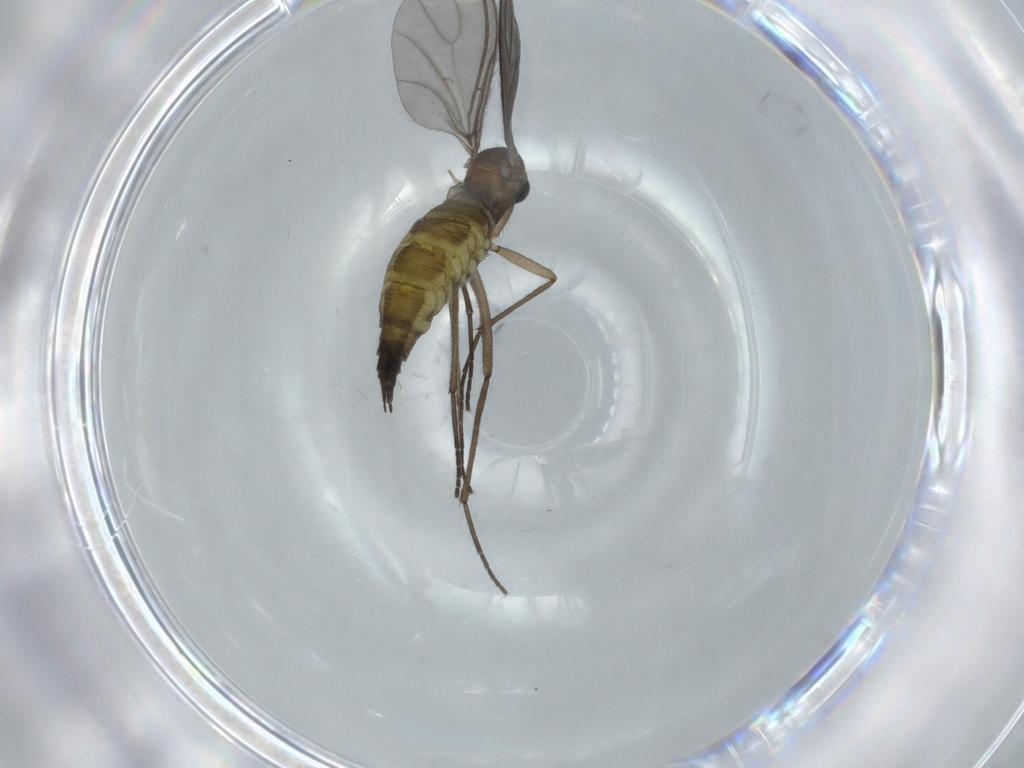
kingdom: Animalia
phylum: Arthropoda
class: Insecta
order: Diptera
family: Sciaridae
